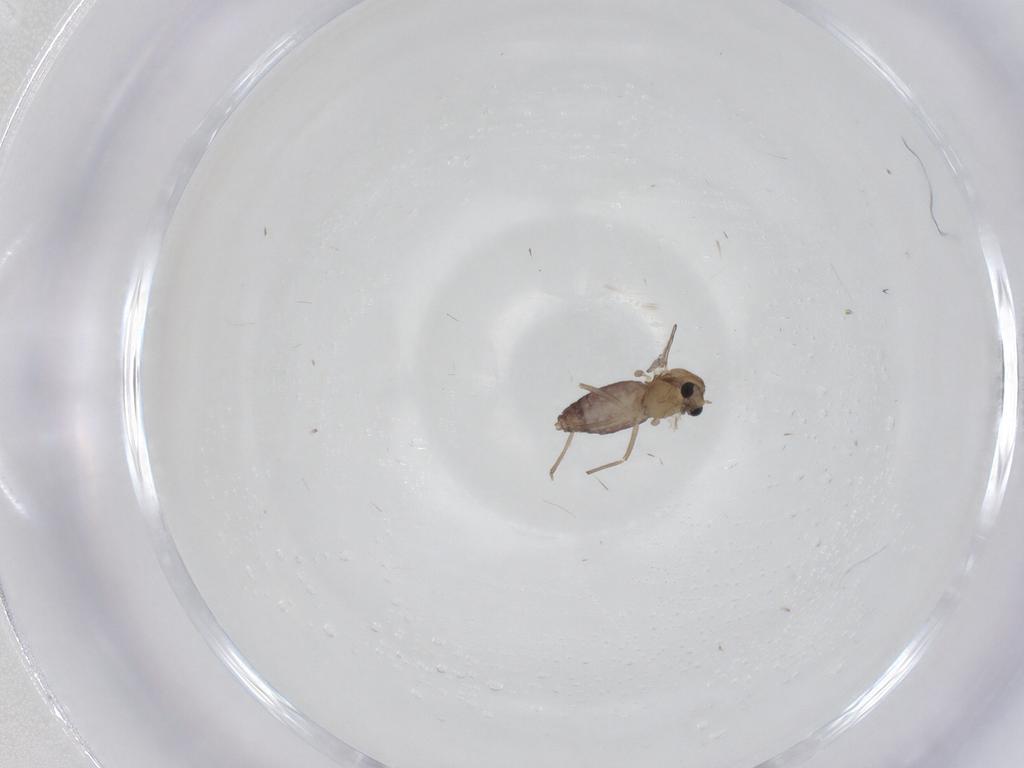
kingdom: Animalia
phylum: Arthropoda
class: Insecta
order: Diptera
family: Chironomidae
